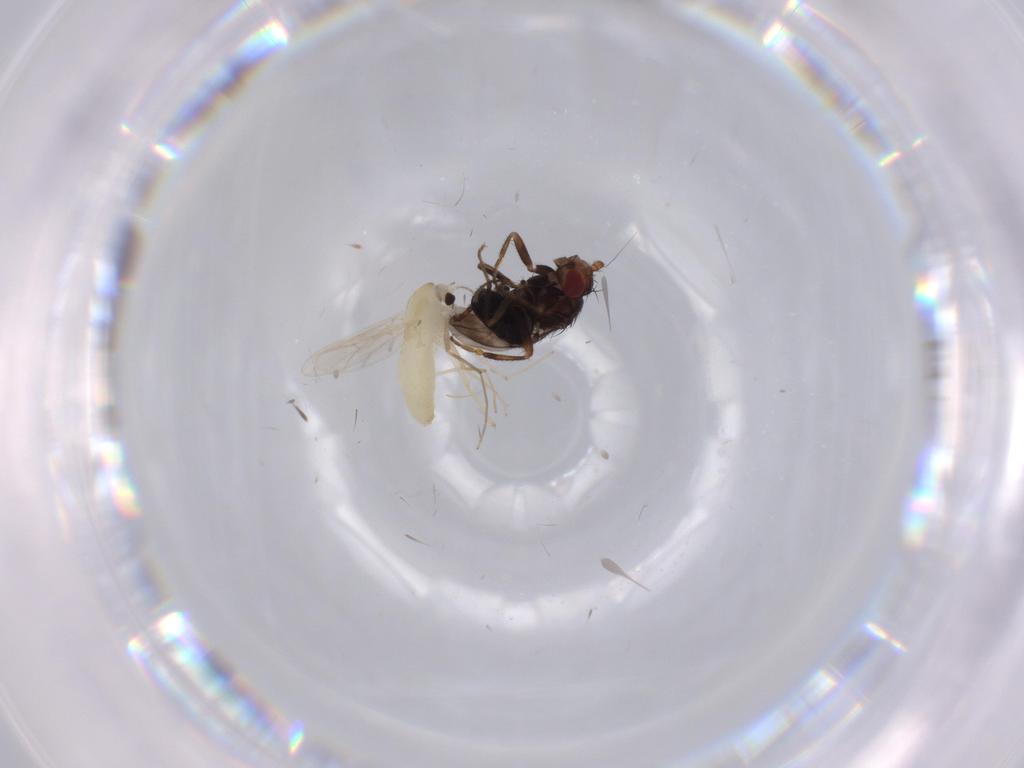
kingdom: Animalia
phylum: Arthropoda
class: Insecta
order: Diptera
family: Chironomidae
